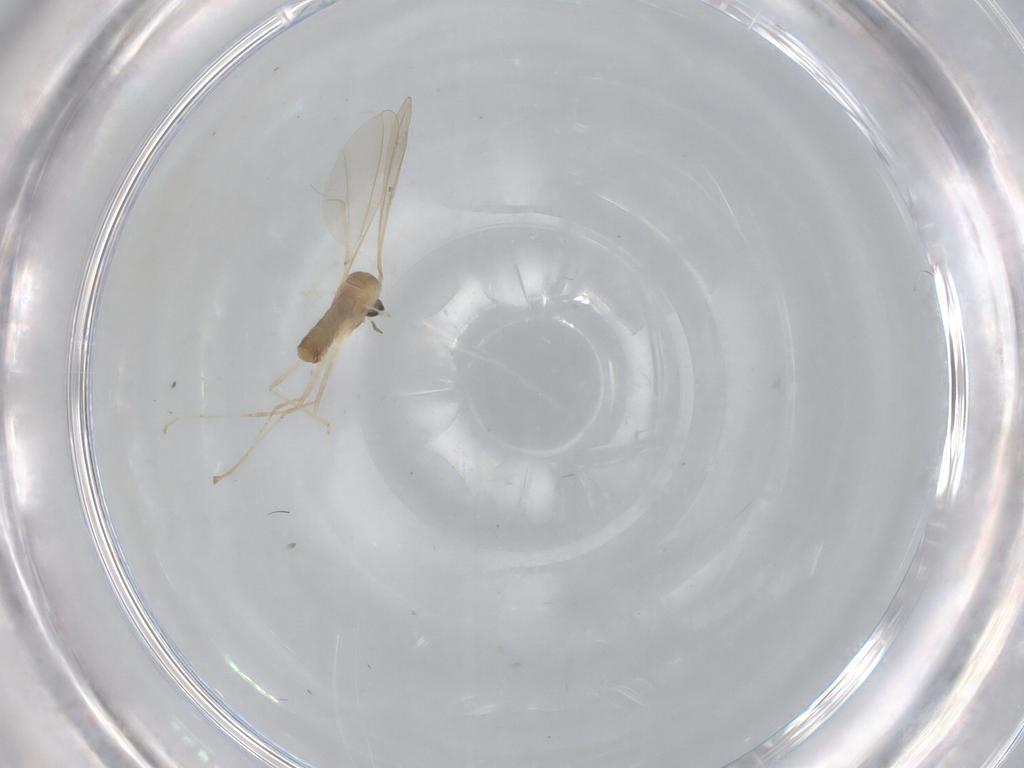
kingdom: Animalia
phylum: Arthropoda
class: Insecta
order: Diptera
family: Cecidomyiidae
